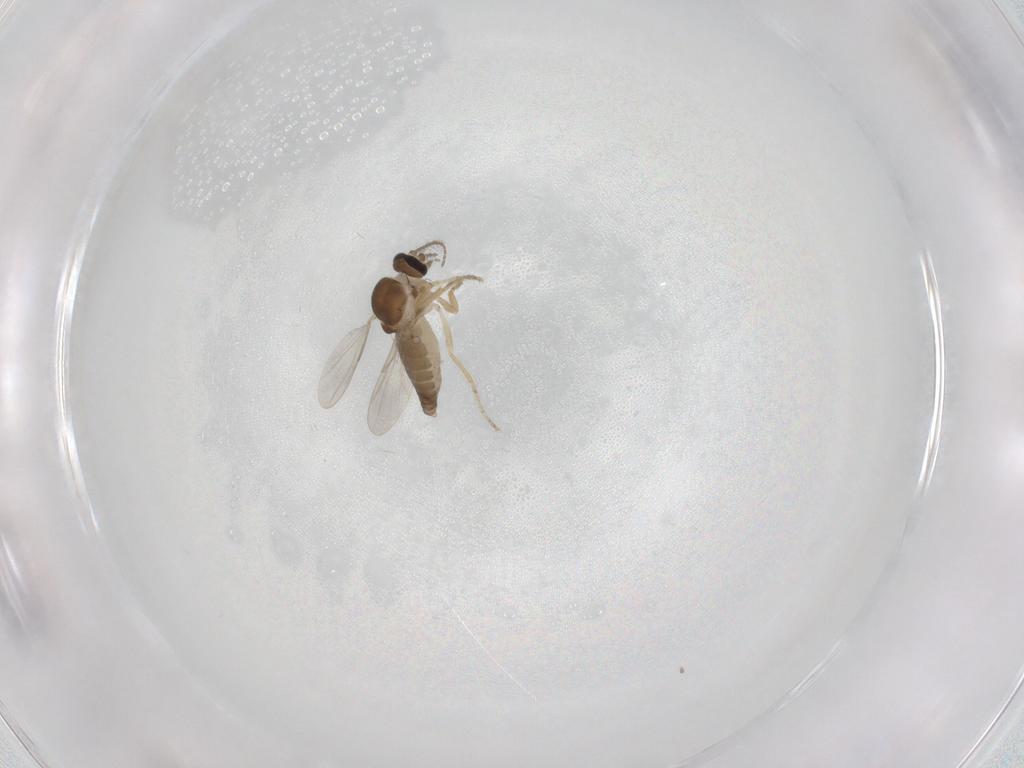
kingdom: Animalia
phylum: Arthropoda
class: Insecta
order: Diptera
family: Ceratopogonidae
